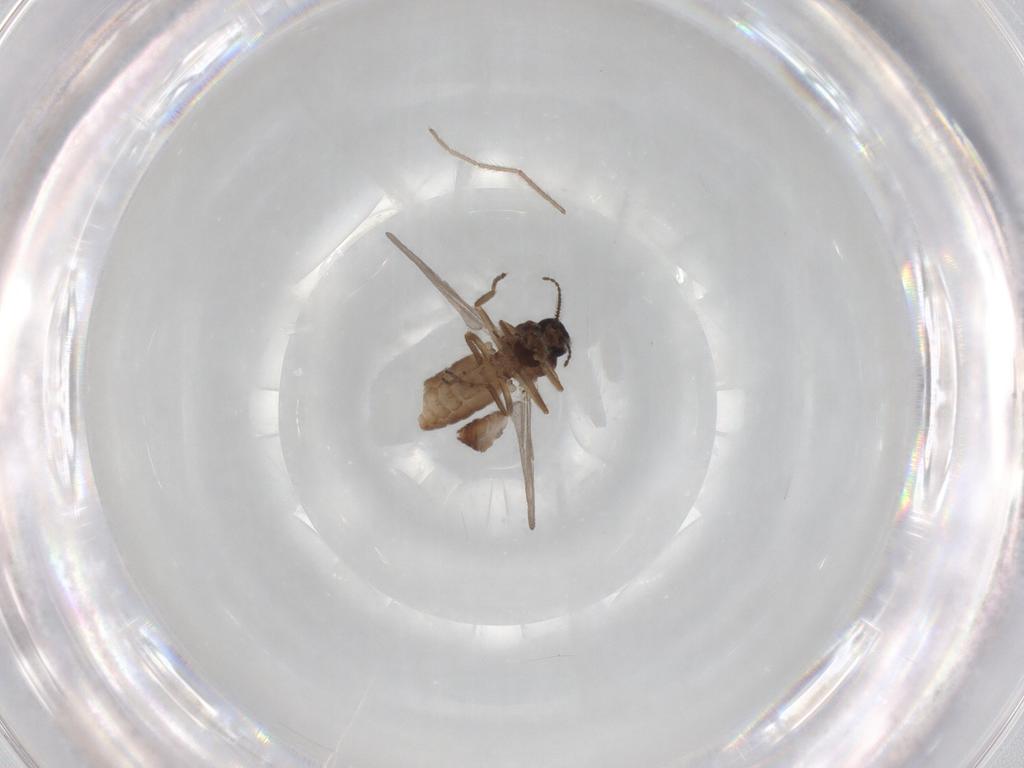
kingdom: Animalia
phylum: Arthropoda
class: Insecta
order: Diptera
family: Ceratopogonidae
